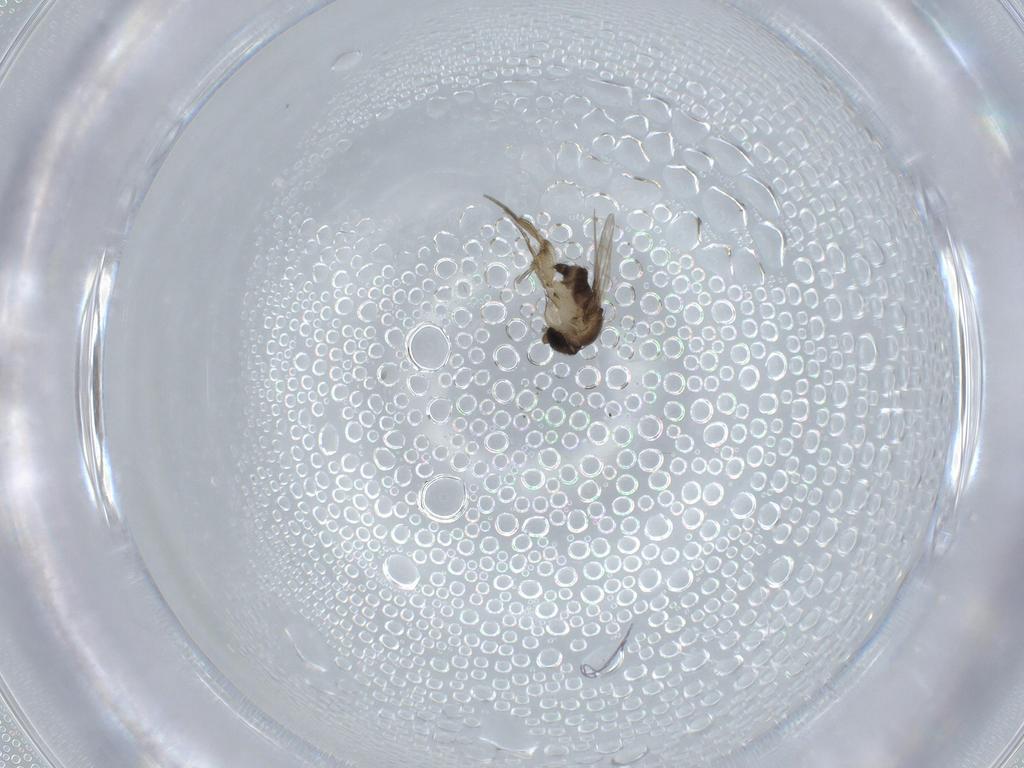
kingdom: Animalia
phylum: Arthropoda
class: Insecta
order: Diptera
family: Phoridae
